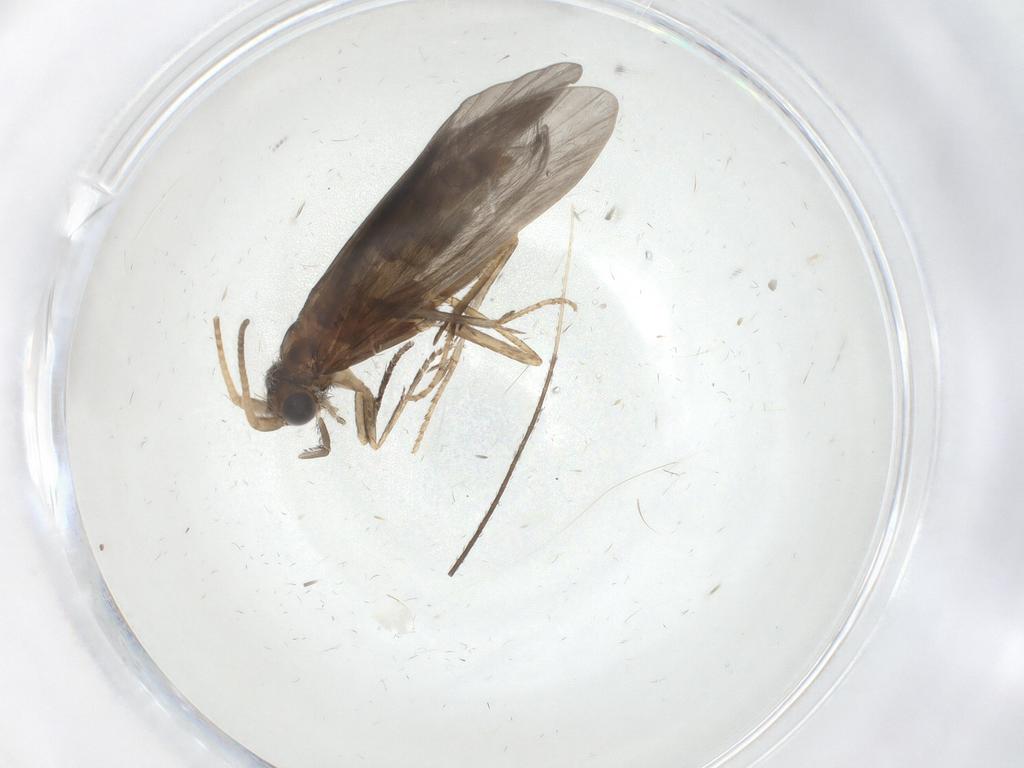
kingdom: Animalia
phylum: Arthropoda
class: Insecta
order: Trichoptera
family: Helicopsychidae
